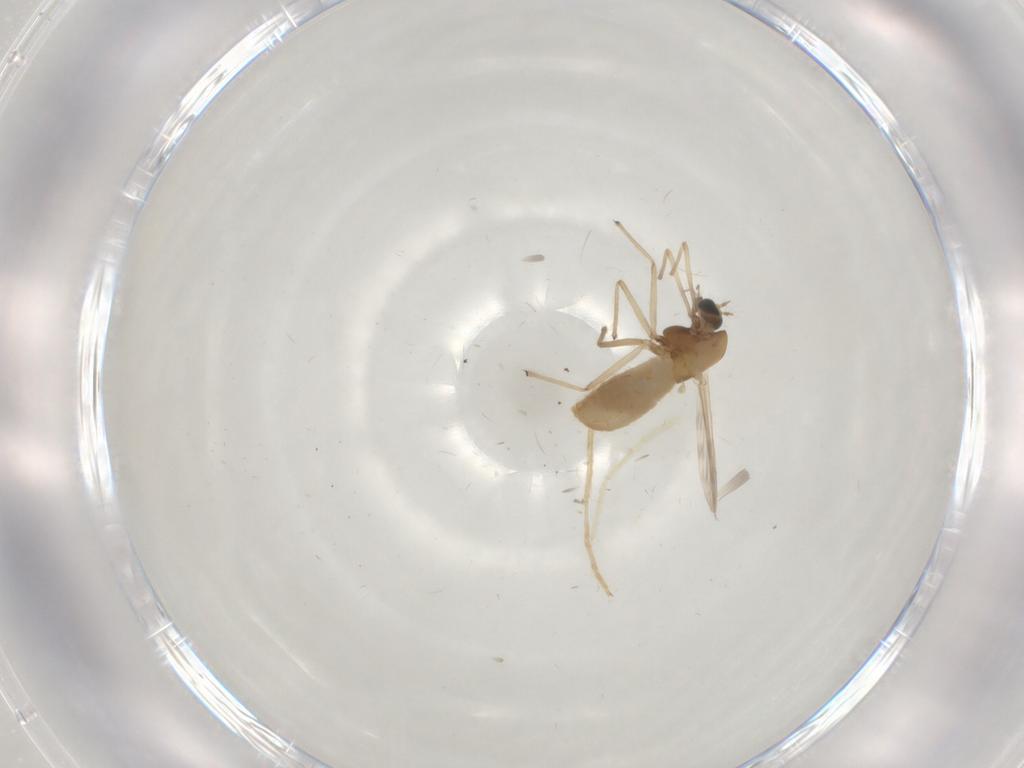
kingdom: Animalia
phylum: Arthropoda
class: Insecta
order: Diptera
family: Chironomidae
